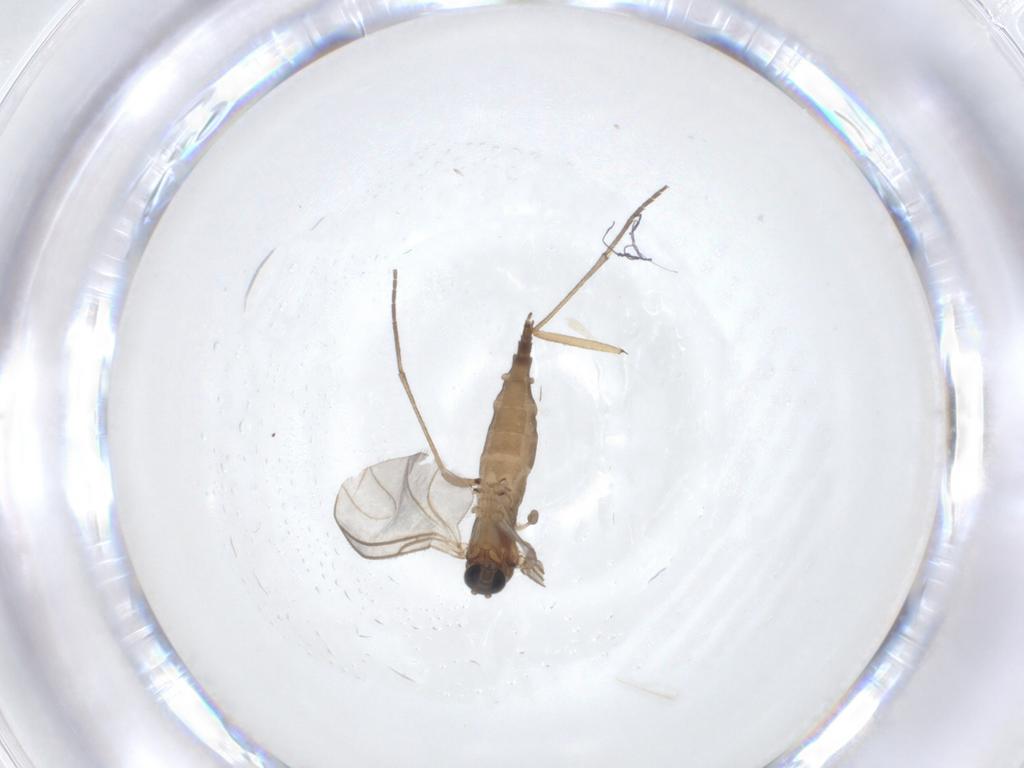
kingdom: Animalia
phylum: Arthropoda
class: Insecta
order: Diptera
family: Sciaridae
